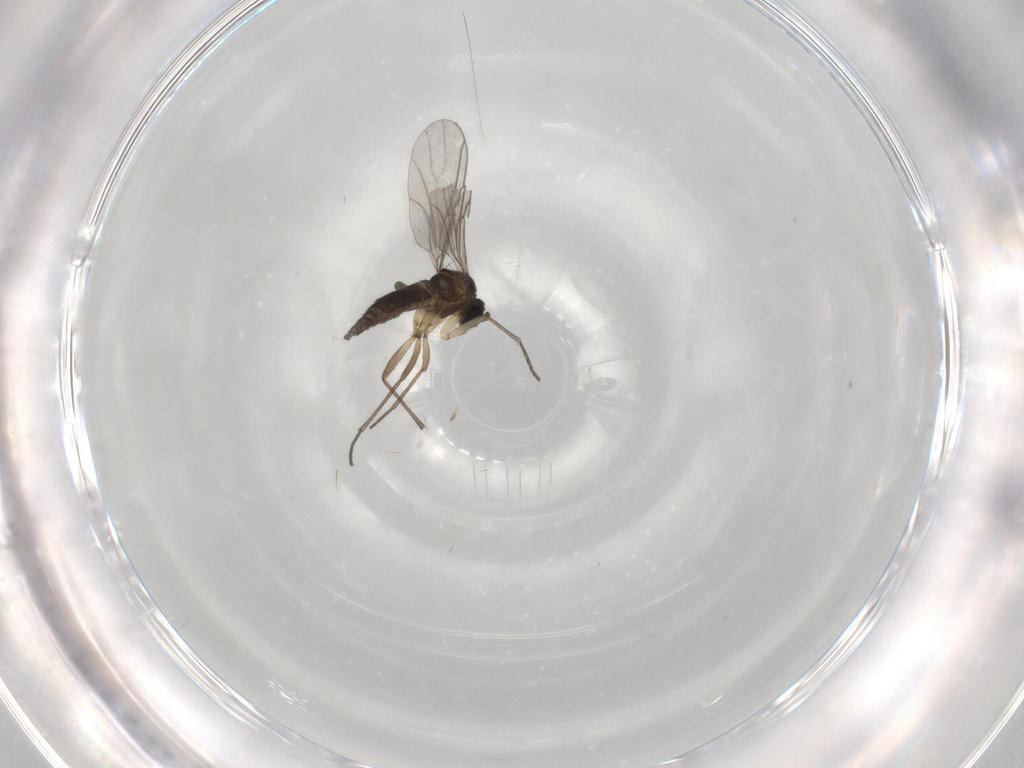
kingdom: Animalia
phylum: Arthropoda
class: Insecta
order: Diptera
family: Sciaridae
